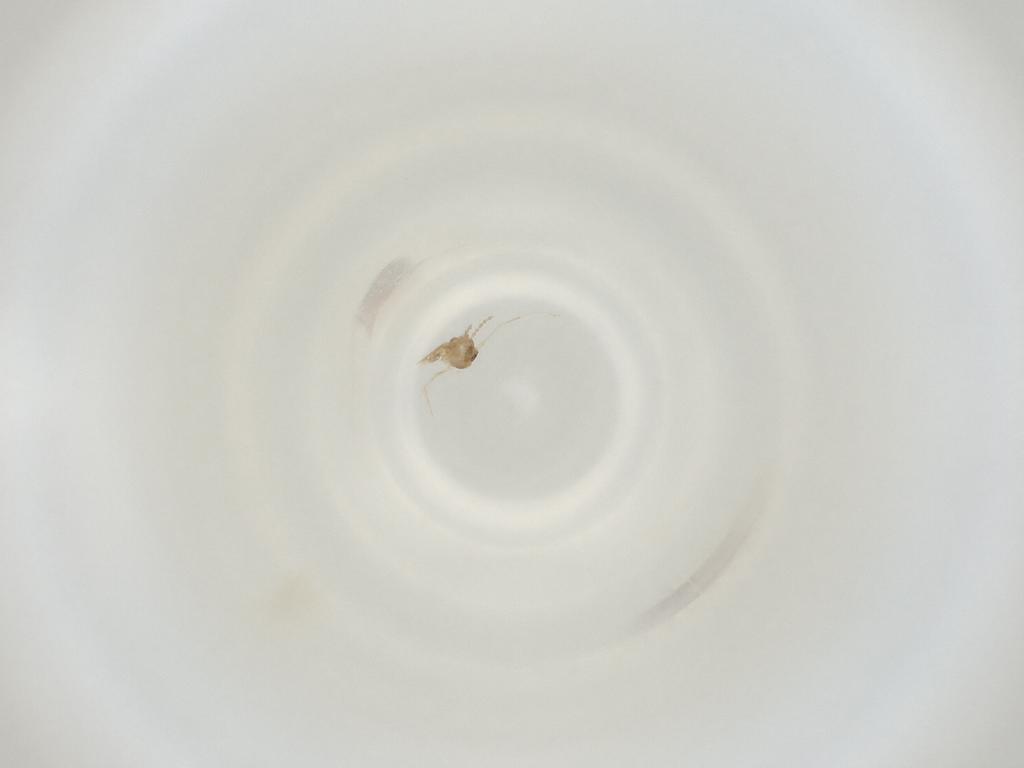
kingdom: Animalia
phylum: Arthropoda
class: Insecta
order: Diptera
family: Cecidomyiidae
